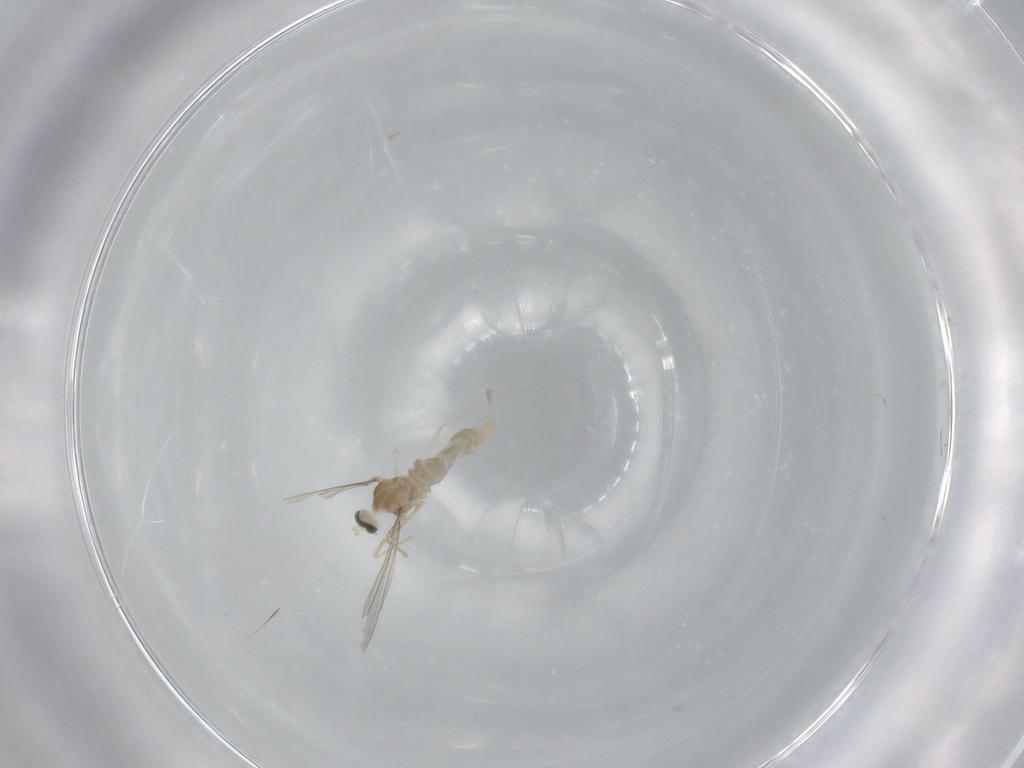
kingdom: Animalia
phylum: Arthropoda
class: Insecta
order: Diptera
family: Cecidomyiidae
